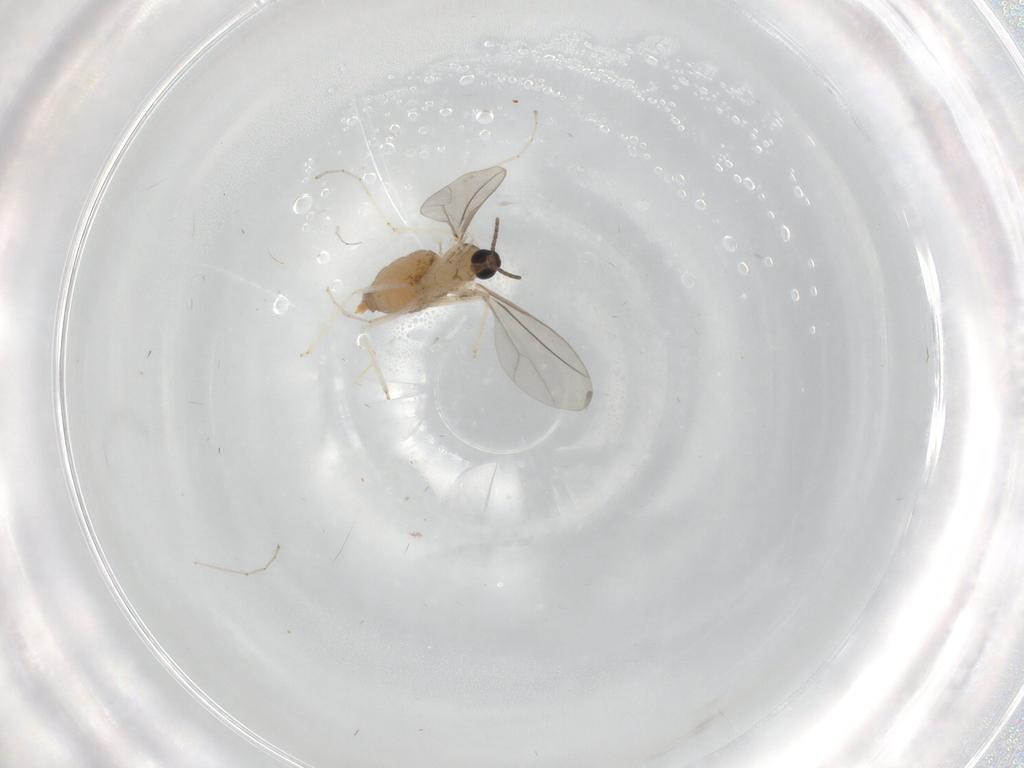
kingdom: Animalia
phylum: Arthropoda
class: Insecta
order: Diptera
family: Cecidomyiidae
